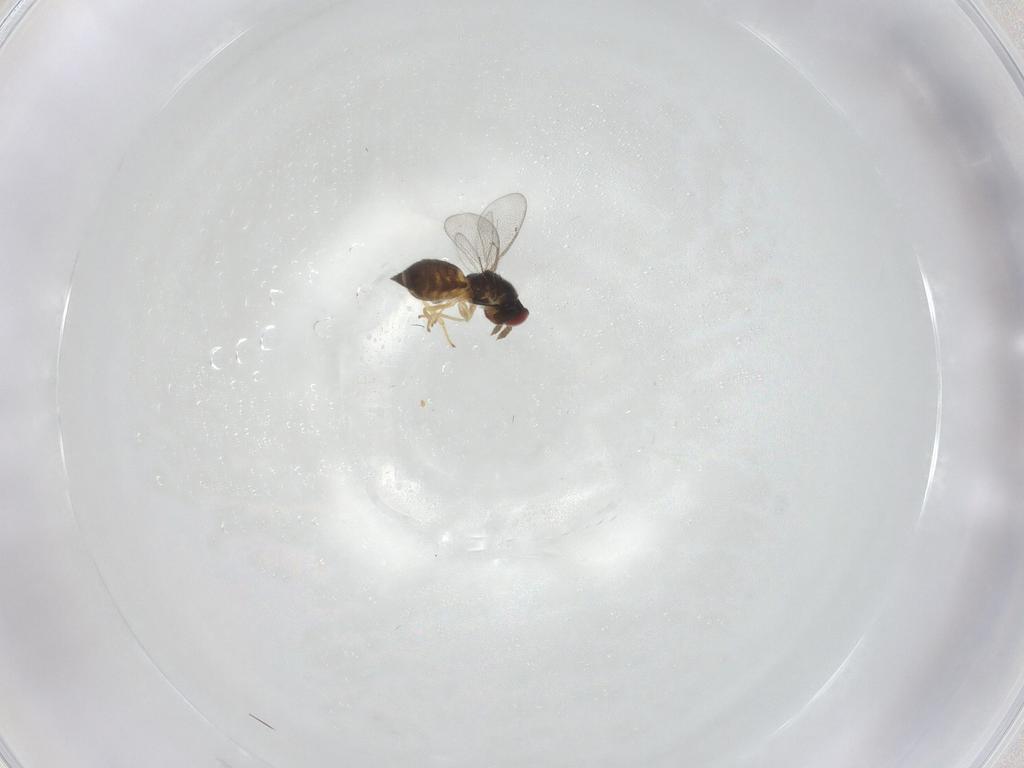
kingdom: Animalia
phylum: Arthropoda
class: Insecta
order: Hymenoptera
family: Eulophidae
